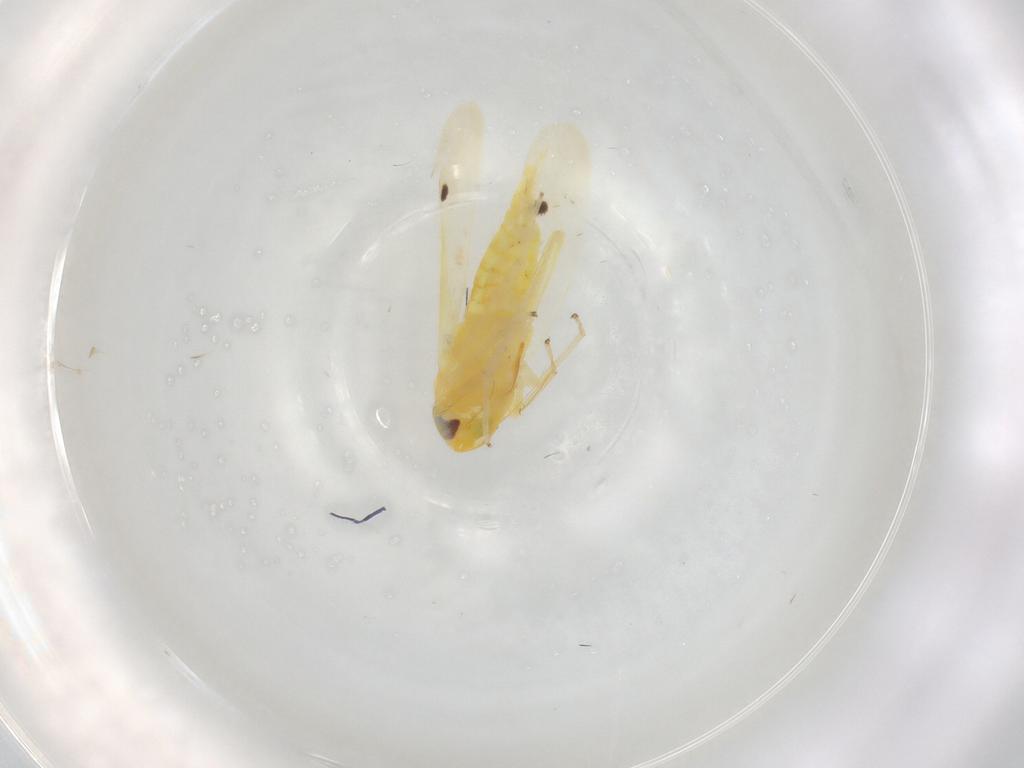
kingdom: Animalia
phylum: Arthropoda
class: Insecta
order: Hemiptera
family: Cicadellidae
